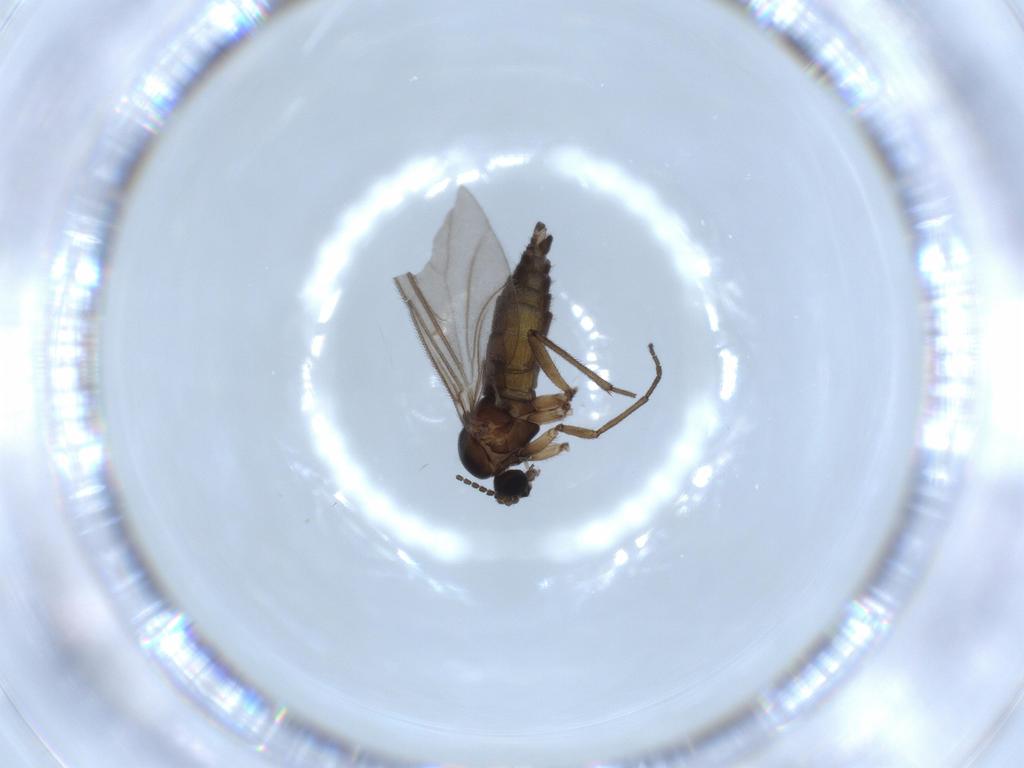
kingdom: Animalia
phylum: Arthropoda
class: Insecta
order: Diptera
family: Sciaridae
